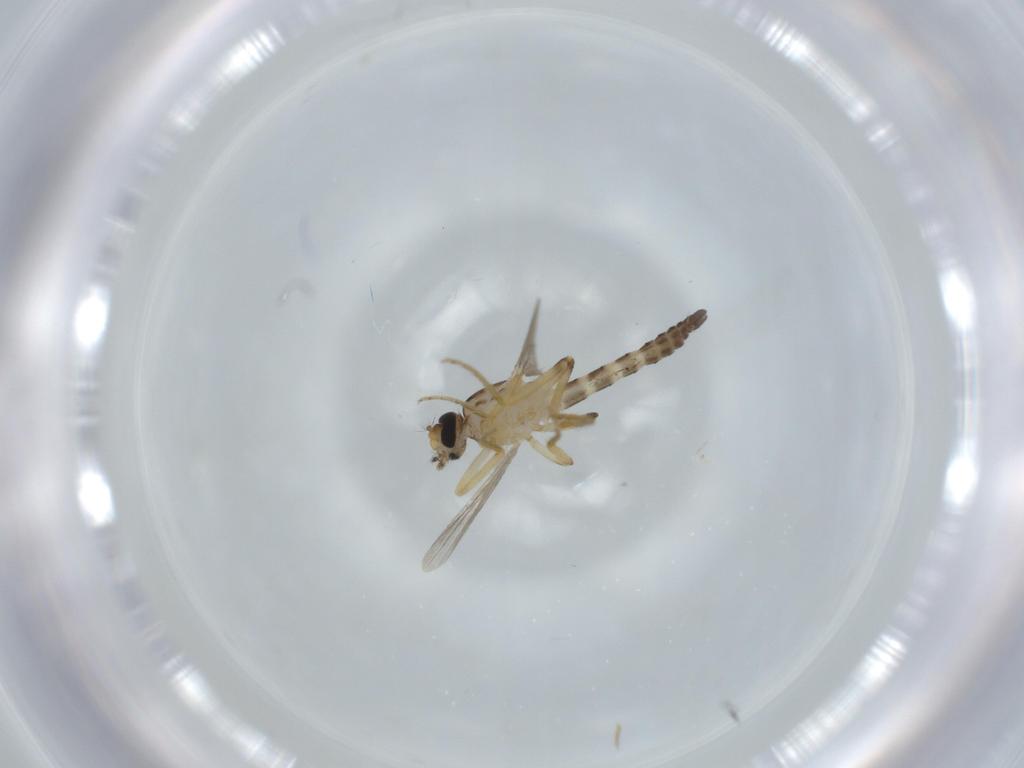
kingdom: Animalia
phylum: Arthropoda
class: Insecta
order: Diptera
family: Ceratopogonidae
